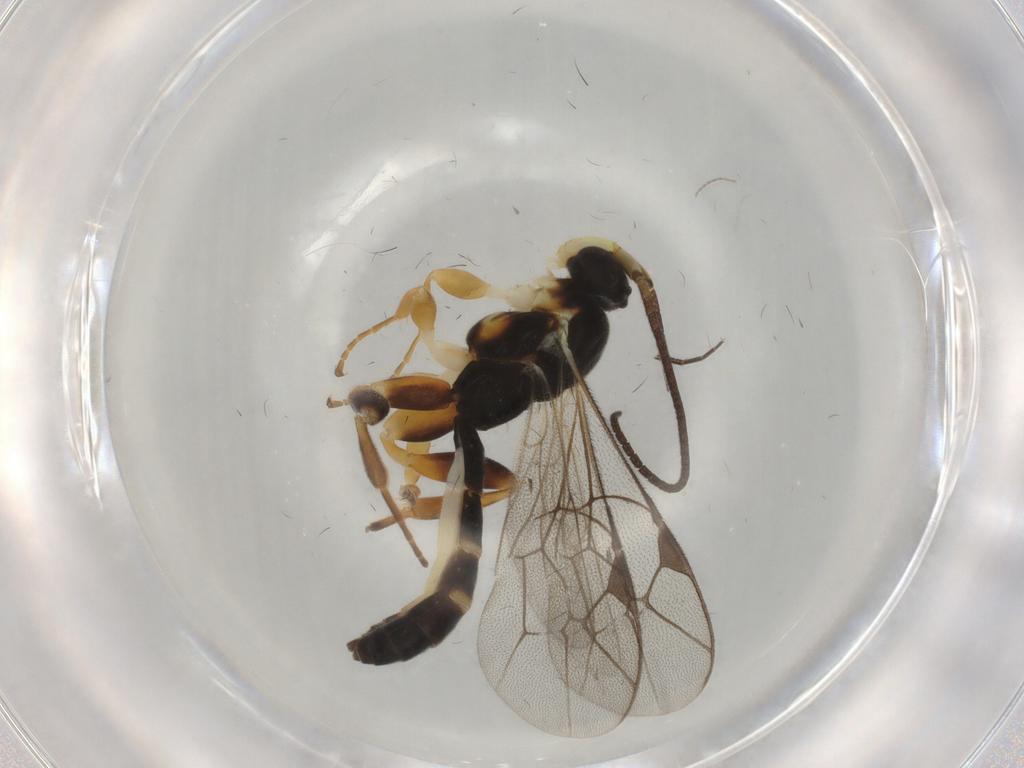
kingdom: Animalia
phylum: Arthropoda
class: Insecta
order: Hymenoptera
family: Ichneumonidae
